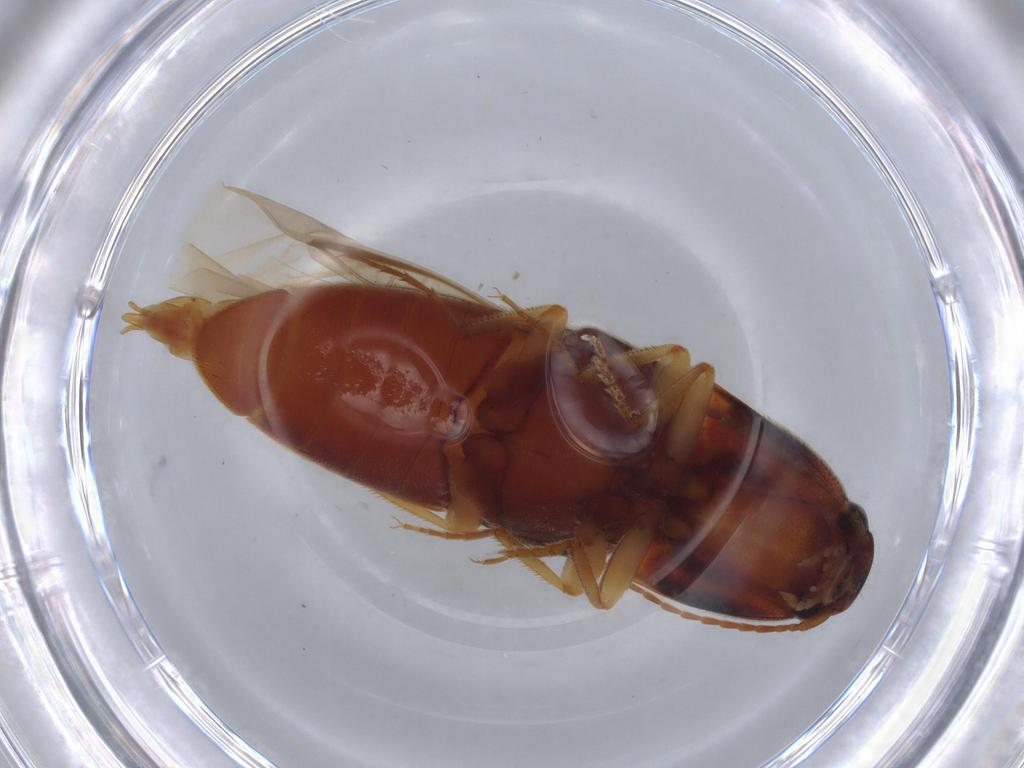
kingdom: Animalia
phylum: Arthropoda
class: Insecta
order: Coleoptera
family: Elateridae
